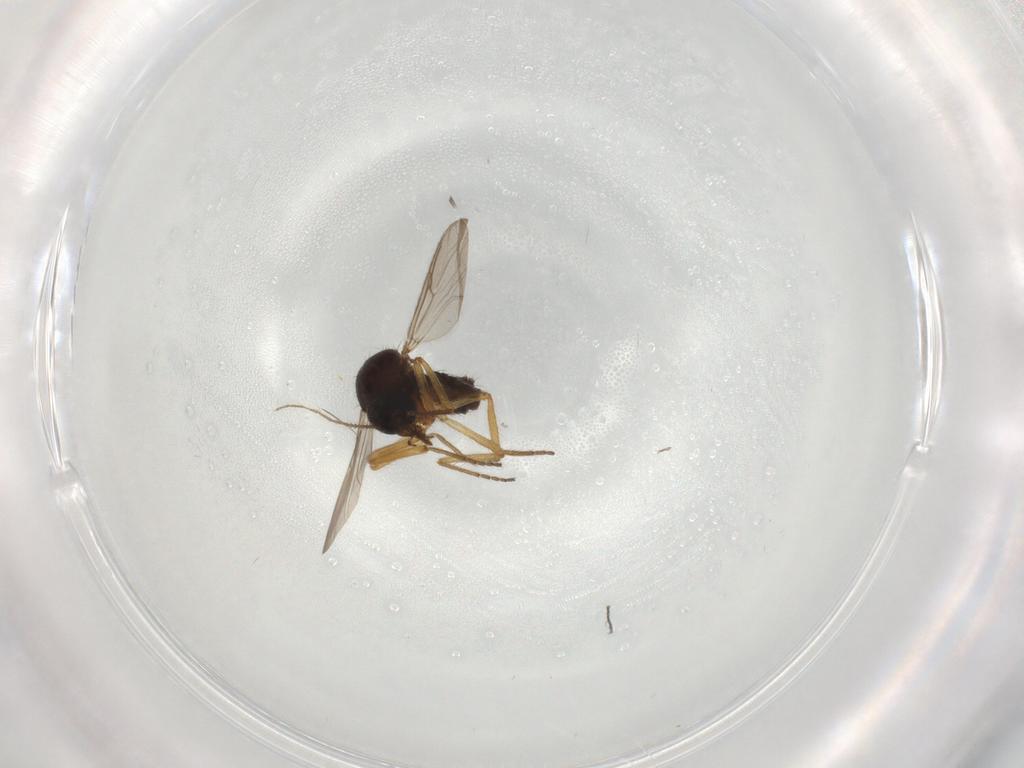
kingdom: Animalia
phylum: Arthropoda
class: Insecta
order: Diptera
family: Ceratopogonidae
